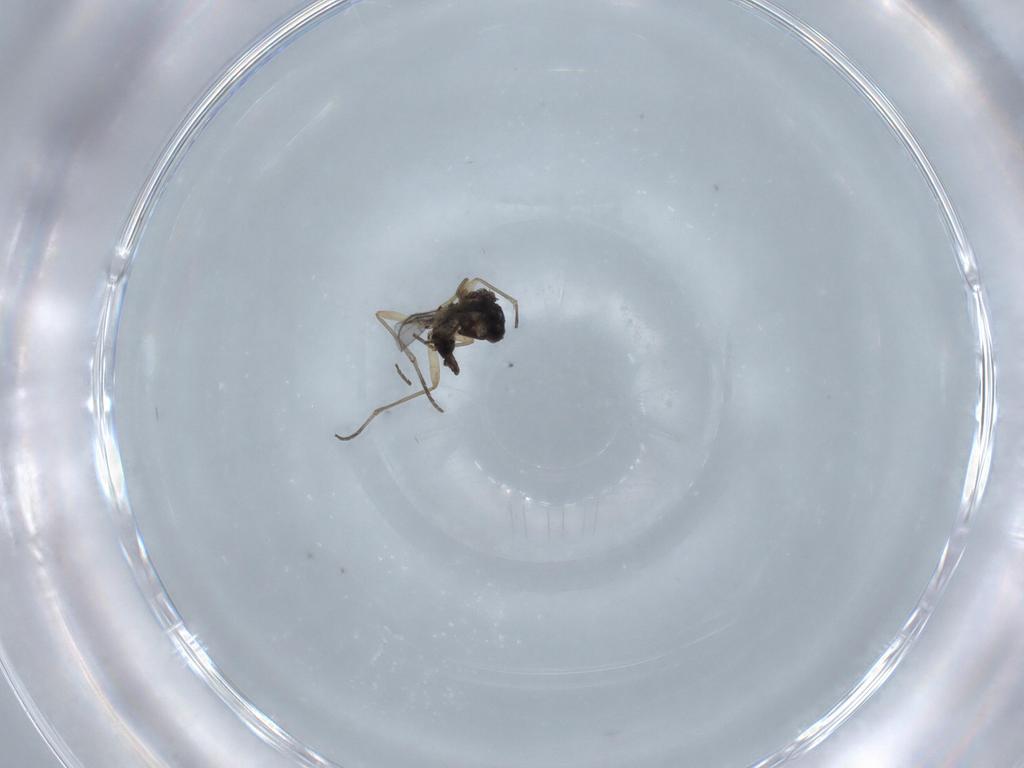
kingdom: Animalia
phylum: Arthropoda
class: Insecta
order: Diptera
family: Sciaridae
